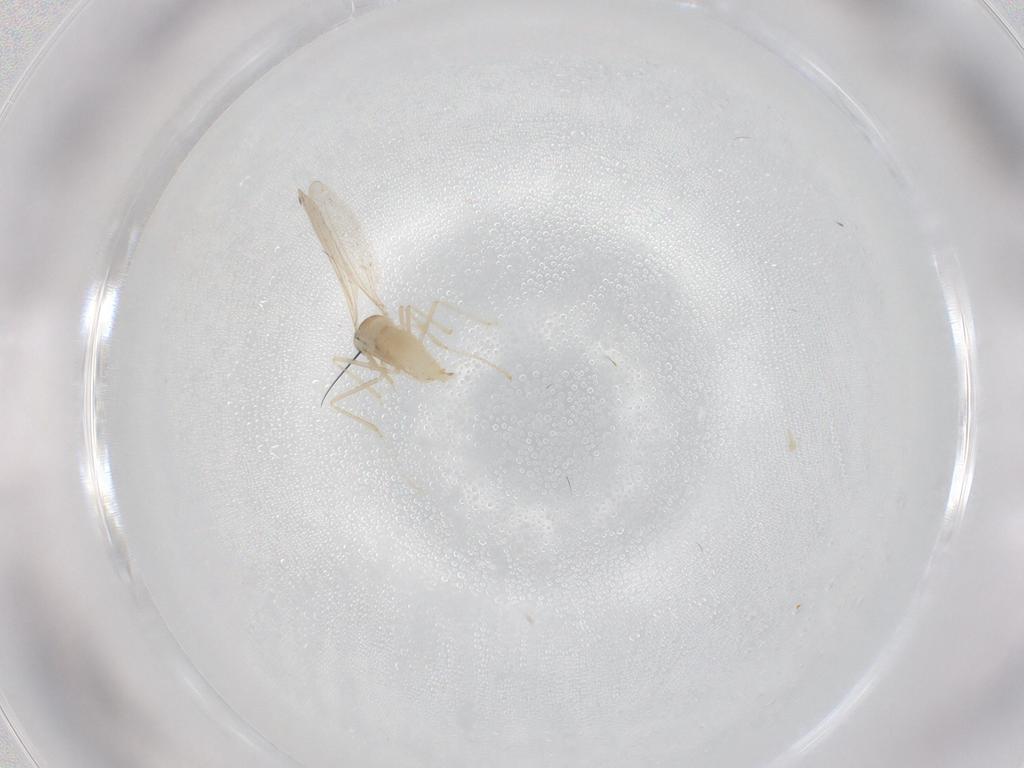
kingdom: Animalia
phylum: Arthropoda
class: Insecta
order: Diptera
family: Cecidomyiidae
